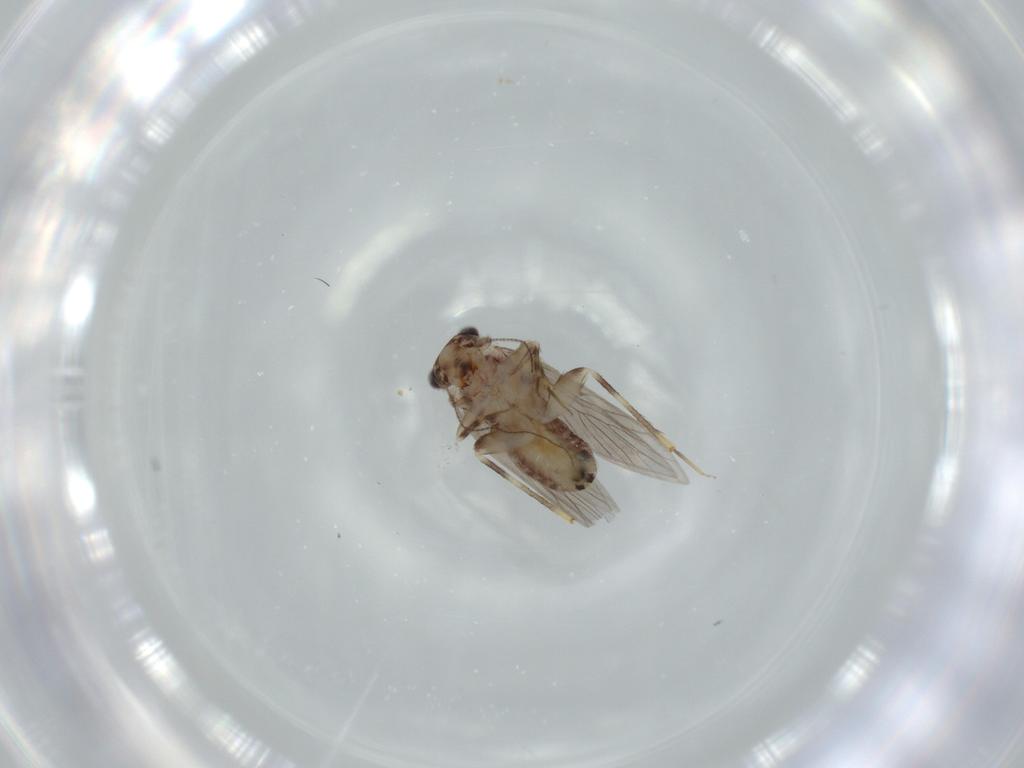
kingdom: Animalia
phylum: Arthropoda
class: Insecta
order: Psocodea
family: Lepidopsocidae
